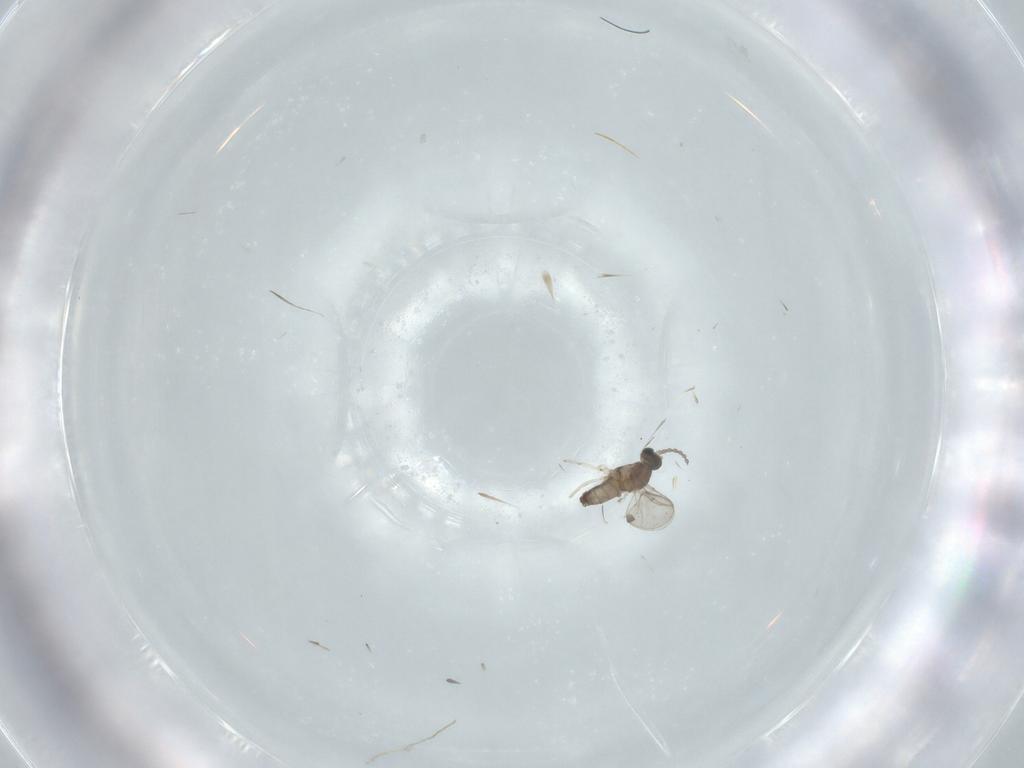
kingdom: Animalia
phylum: Arthropoda
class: Insecta
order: Diptera
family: Cecidomyiidae
